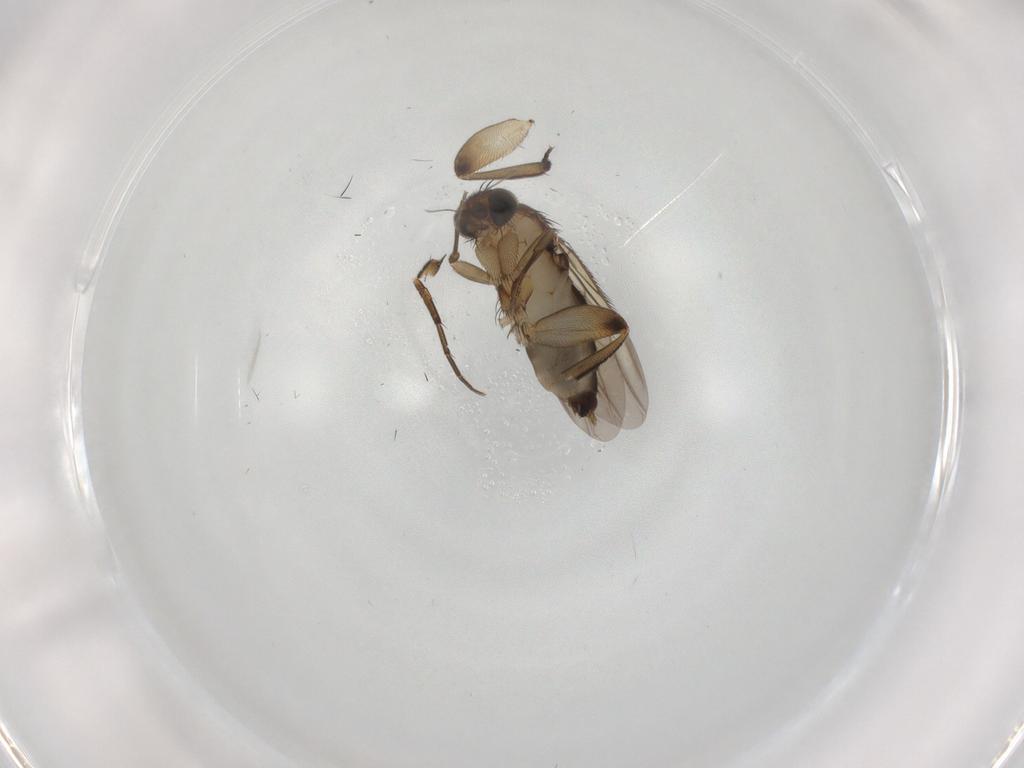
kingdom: Animalia
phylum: Arthropoda
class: Insecta
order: Diptera
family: Phoridae
